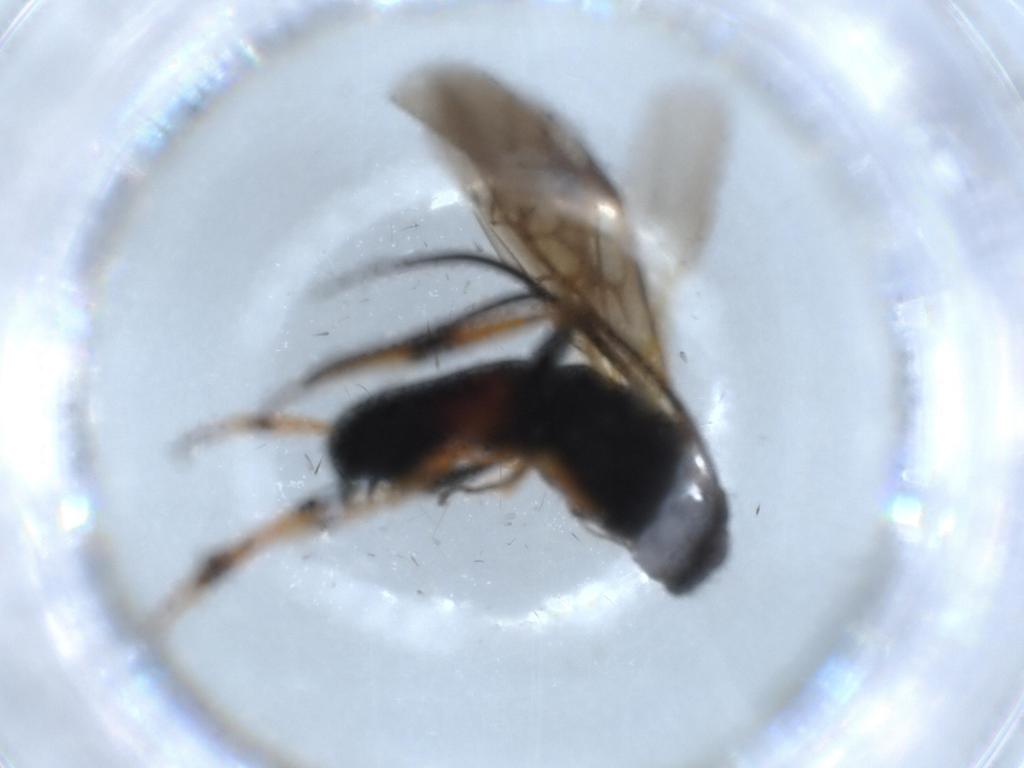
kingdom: Animalia
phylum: Arthropoda
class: Insecta
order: Hymenoptera
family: Braconidae
